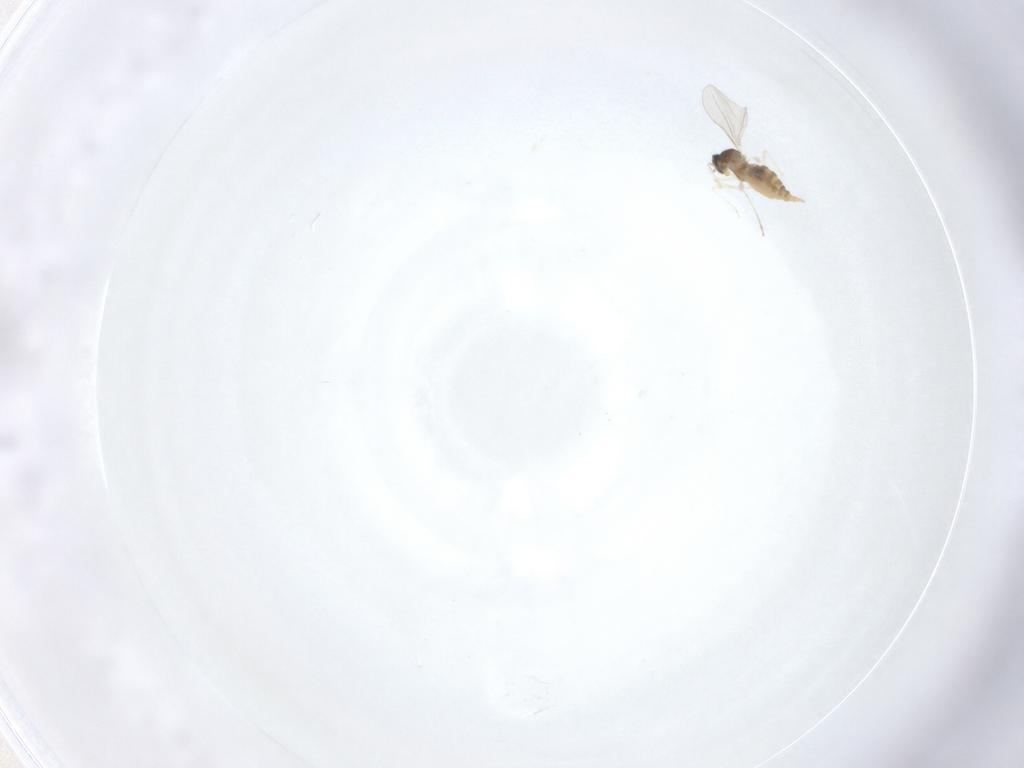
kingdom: Animalia
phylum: Arthropoda
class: Insecta
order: Diptera
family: Cecidomyiidae
